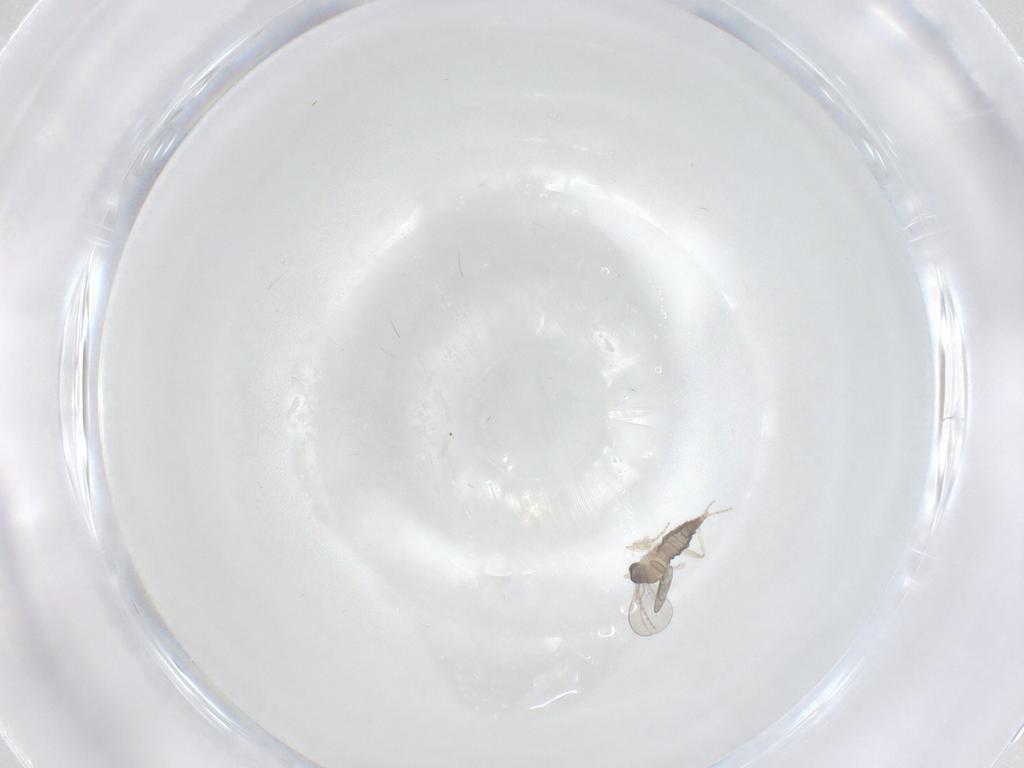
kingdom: Animalia
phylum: Arthropoda
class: Insecta
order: Diptera
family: Cecidomyiidae
